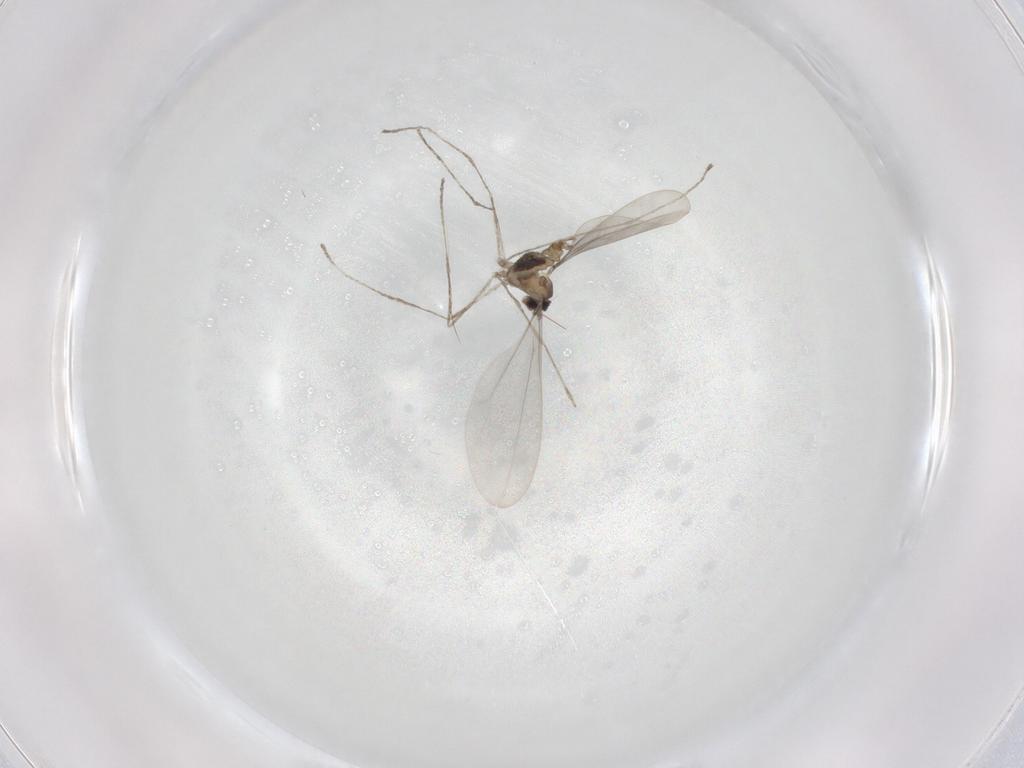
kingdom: Animalia
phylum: Arthropoda
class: Insecta
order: Diptera
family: Cecidomyiidae
